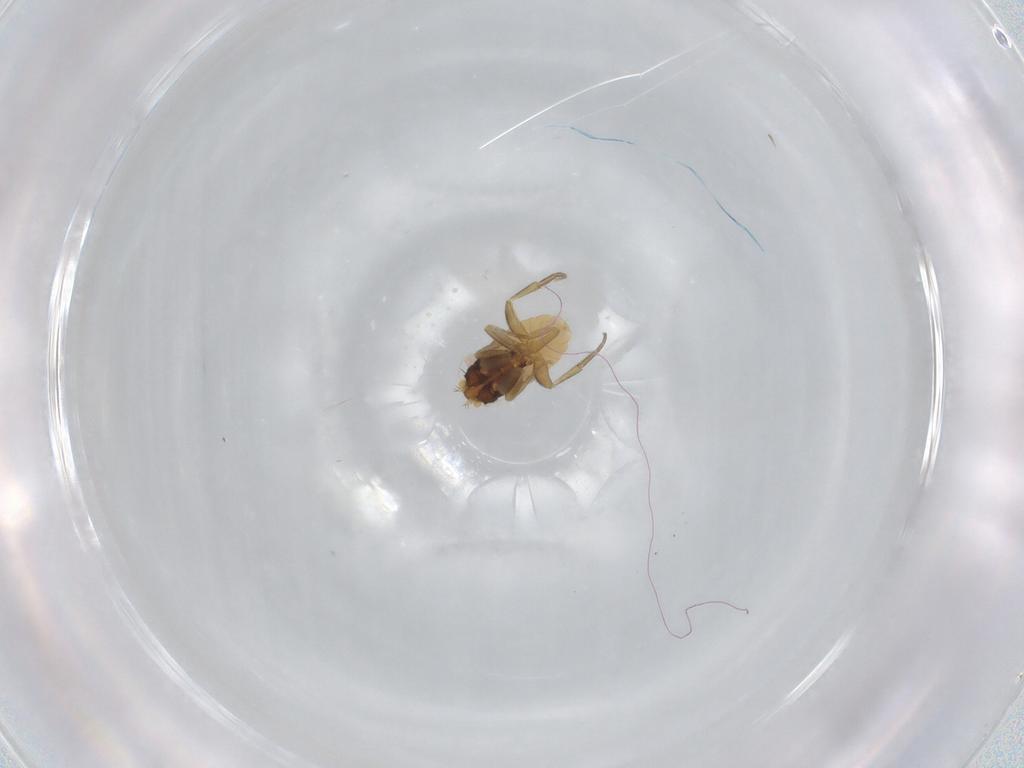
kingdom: Animalia
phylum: Arthropoda
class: Insecta
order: Diptera
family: Phoridae
